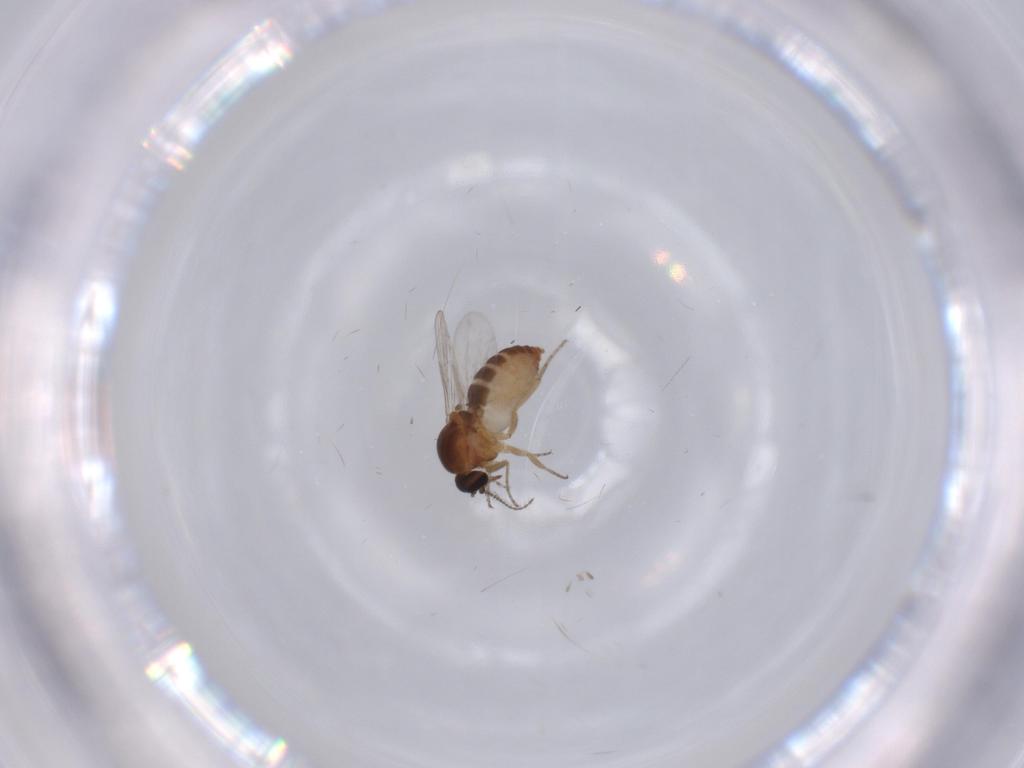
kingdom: Animalia
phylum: Arthropoda
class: Insecta
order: Diptera
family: Ceratopogonidae
